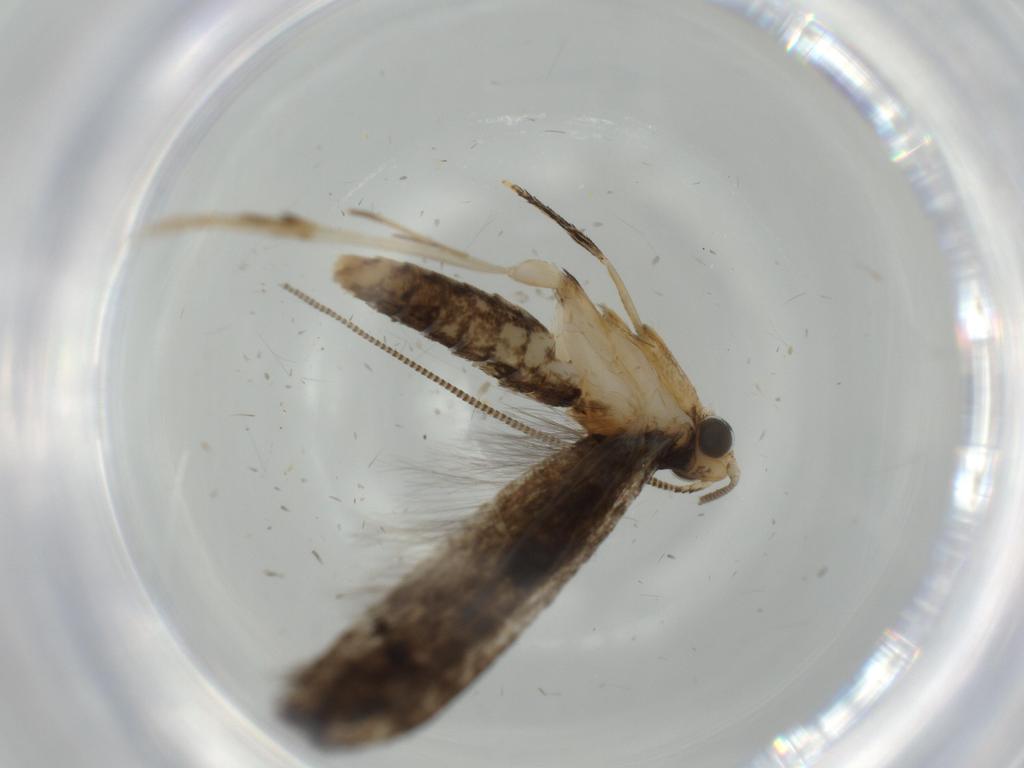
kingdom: Animalia
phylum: Arthropoda
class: Insecta
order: Lepidoptera
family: Tineidae
